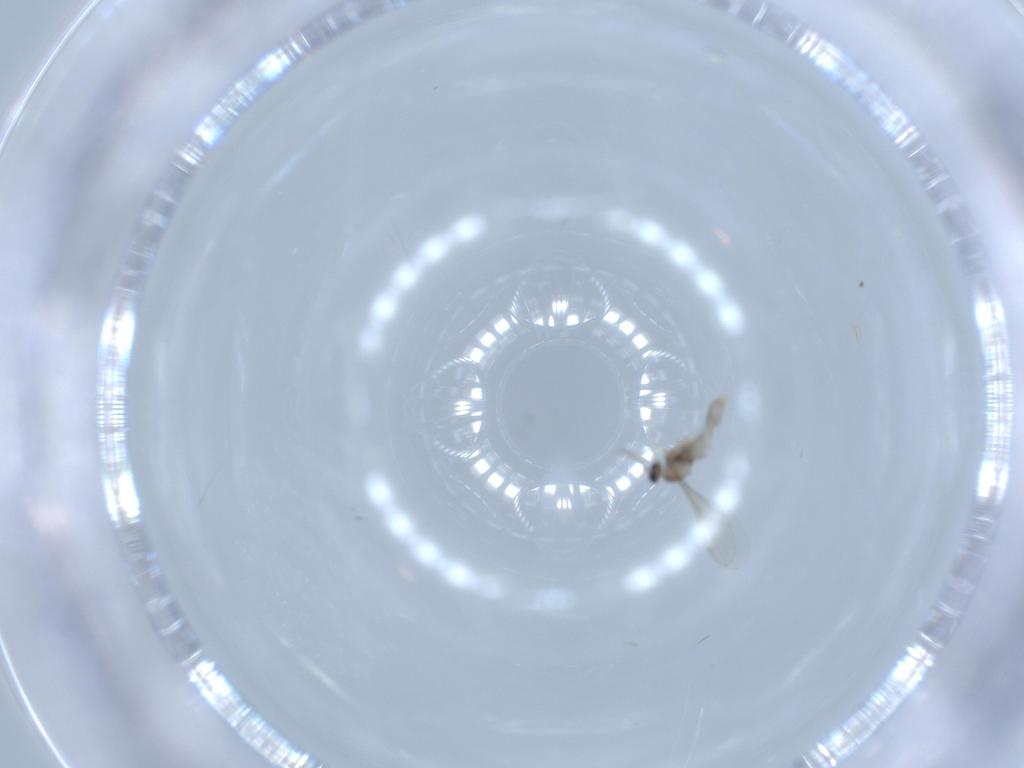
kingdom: Animalia
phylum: Arthropoda
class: Insecta
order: Diptera
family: Cecidomyiidae
